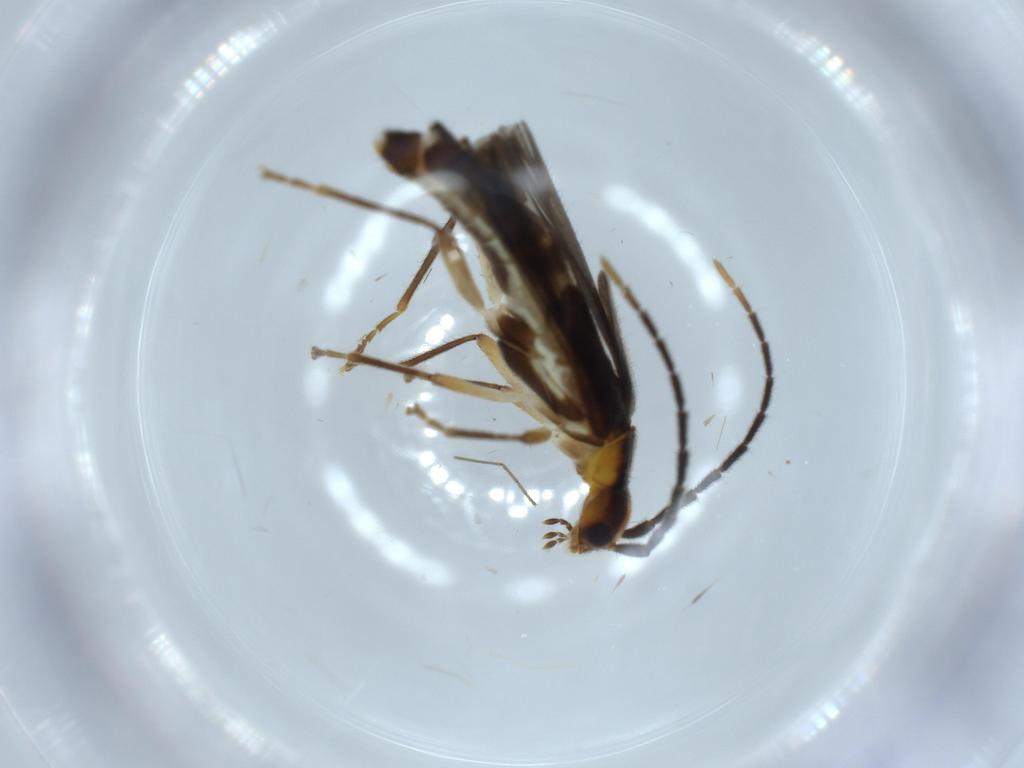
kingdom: Animalia
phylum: Arthropoda
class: Insecta
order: Coleoptera
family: Cantharidae
